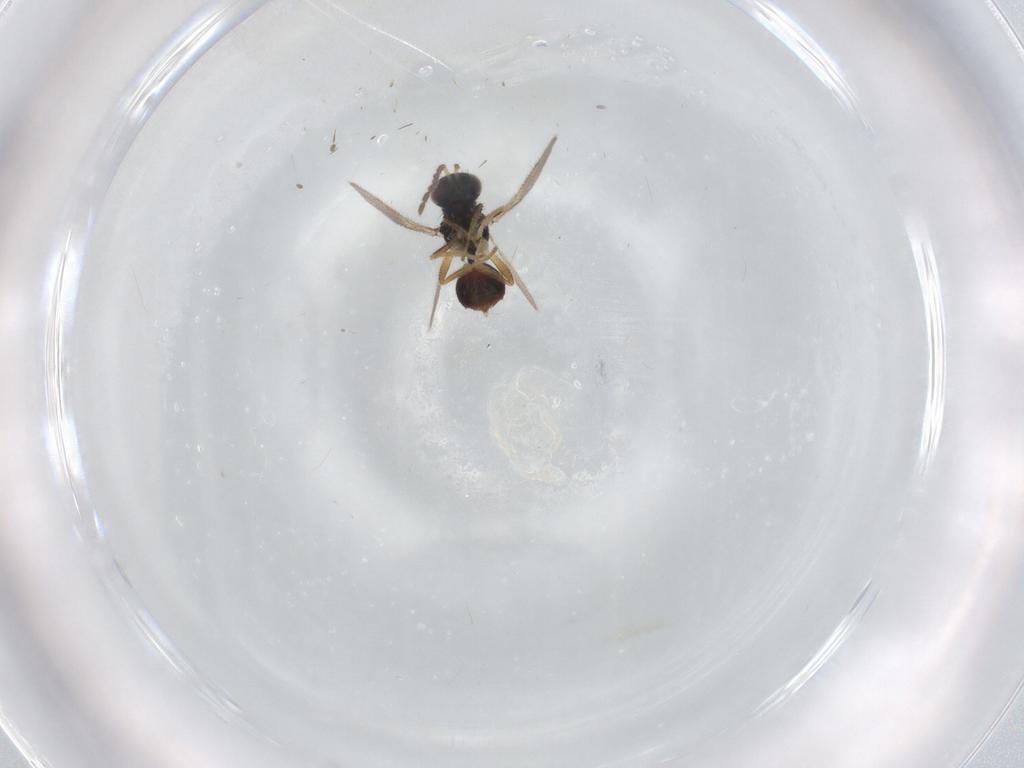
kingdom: Animalia
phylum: Arthropoda
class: Insecta
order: Hymenoptera
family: Eulophidae
